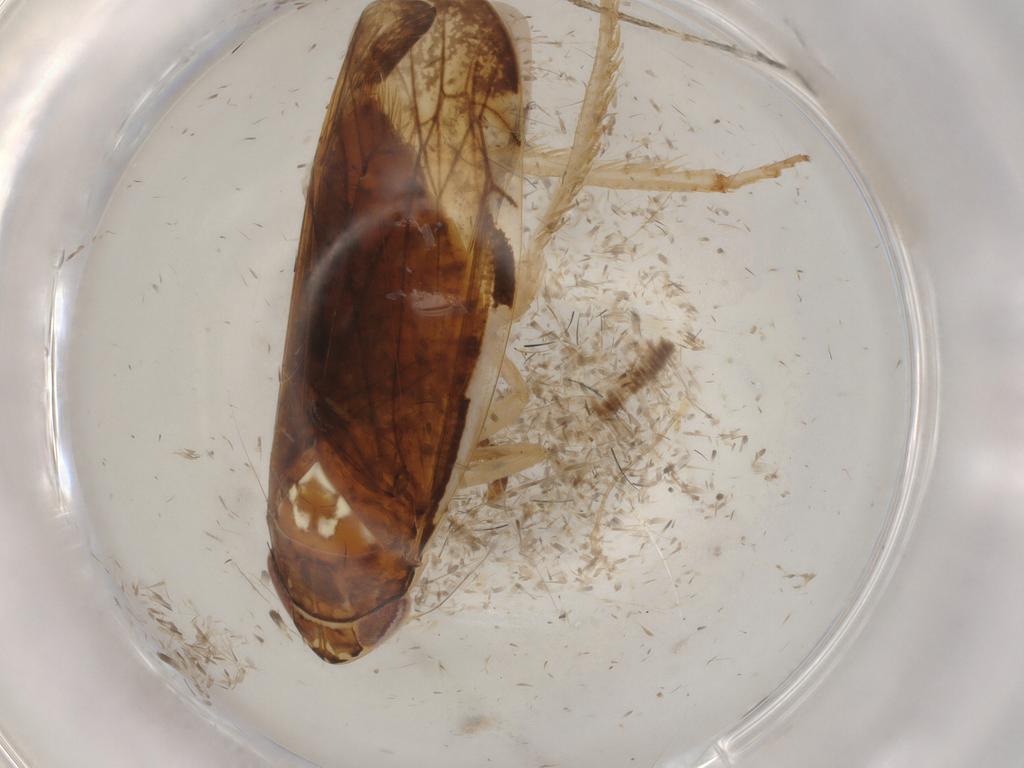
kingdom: Animalia
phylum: Arthropoda
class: Insecta
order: Hemiptera
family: Cicadellidae
